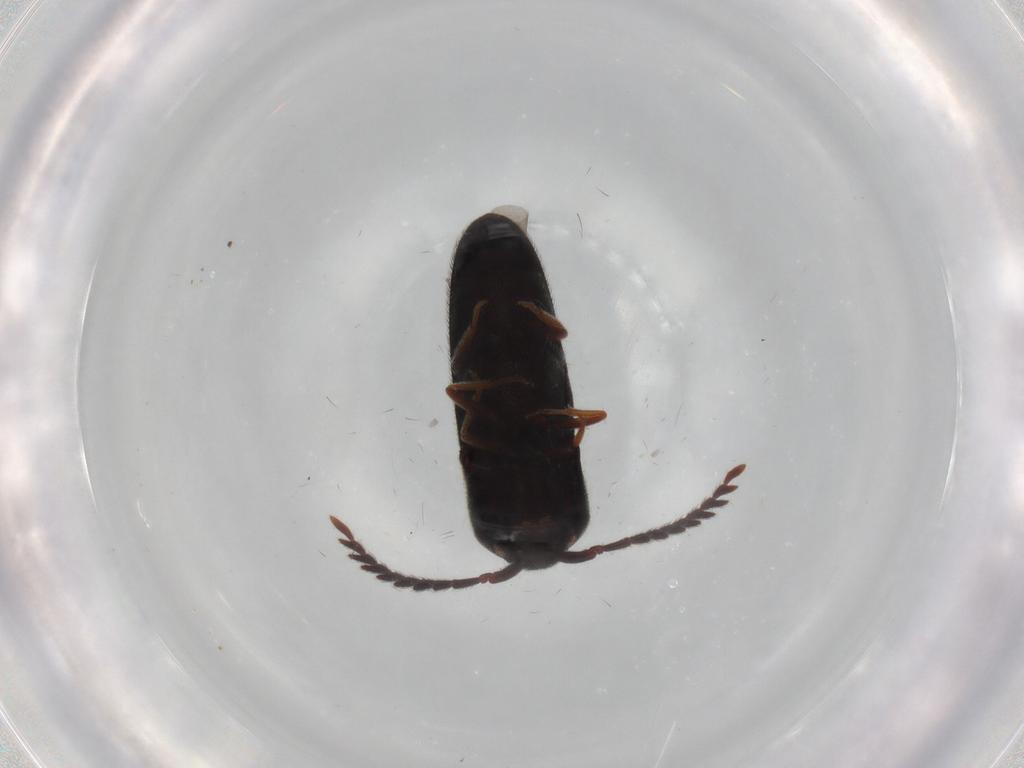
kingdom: Animalia
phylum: Arthropoda
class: Insecta
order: Coleoptera
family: Eucnemidae
